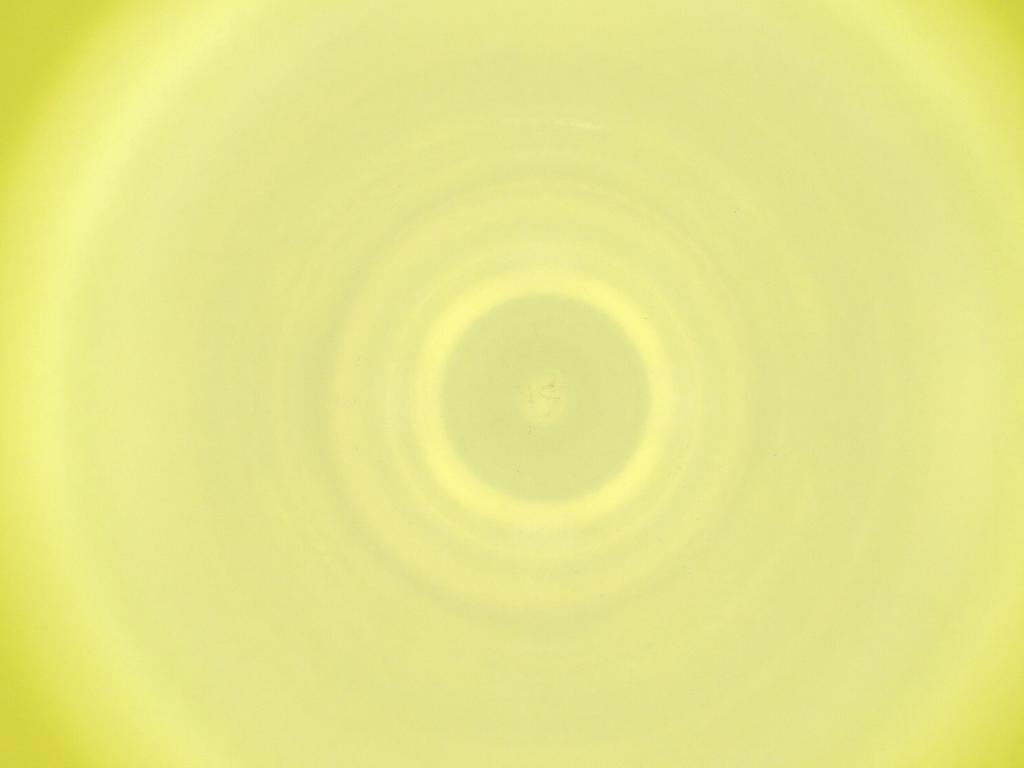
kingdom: Animalia
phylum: Arthropoda
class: Insecta
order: Diptera
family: Cecidomyiidae
